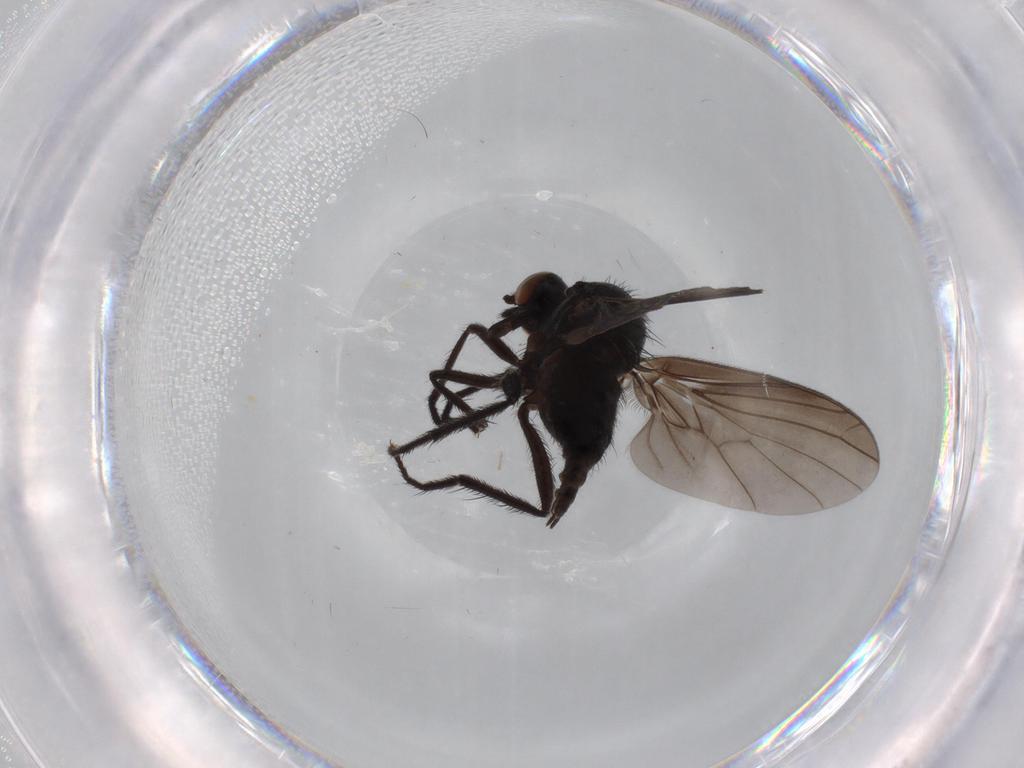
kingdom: Animalia
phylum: Arthropoda
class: Insecta
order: Diptera
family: Empididae
